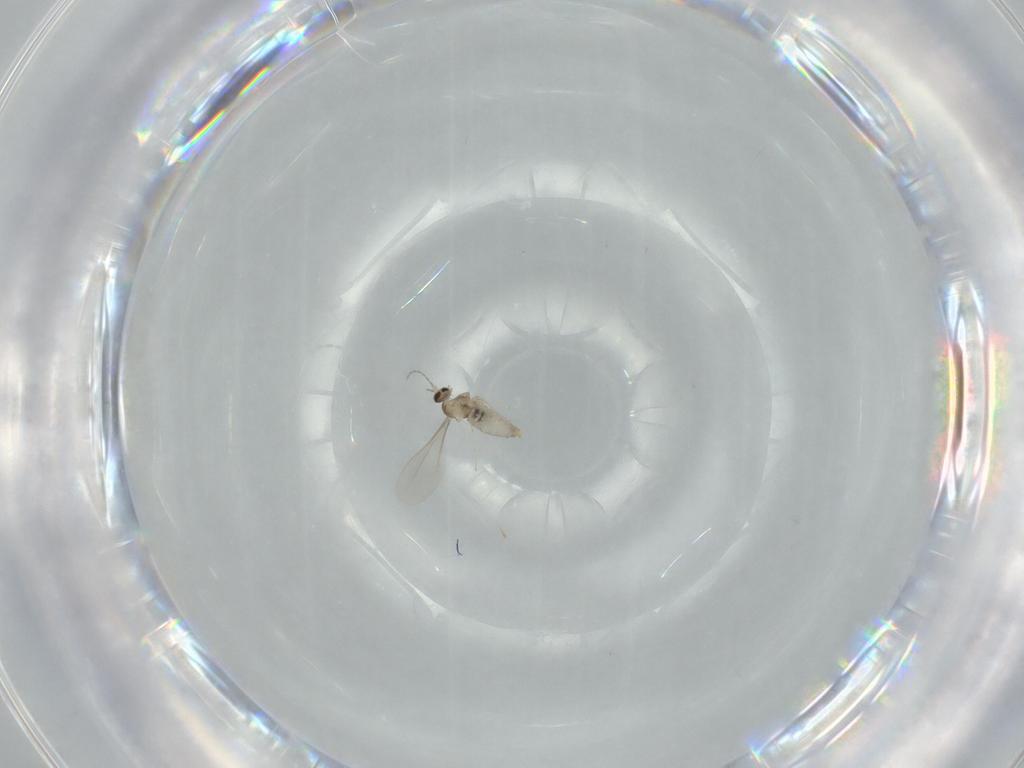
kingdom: Animalia
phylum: Arthropoda
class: Insecta
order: Diptera
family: Cecidomyiidae
